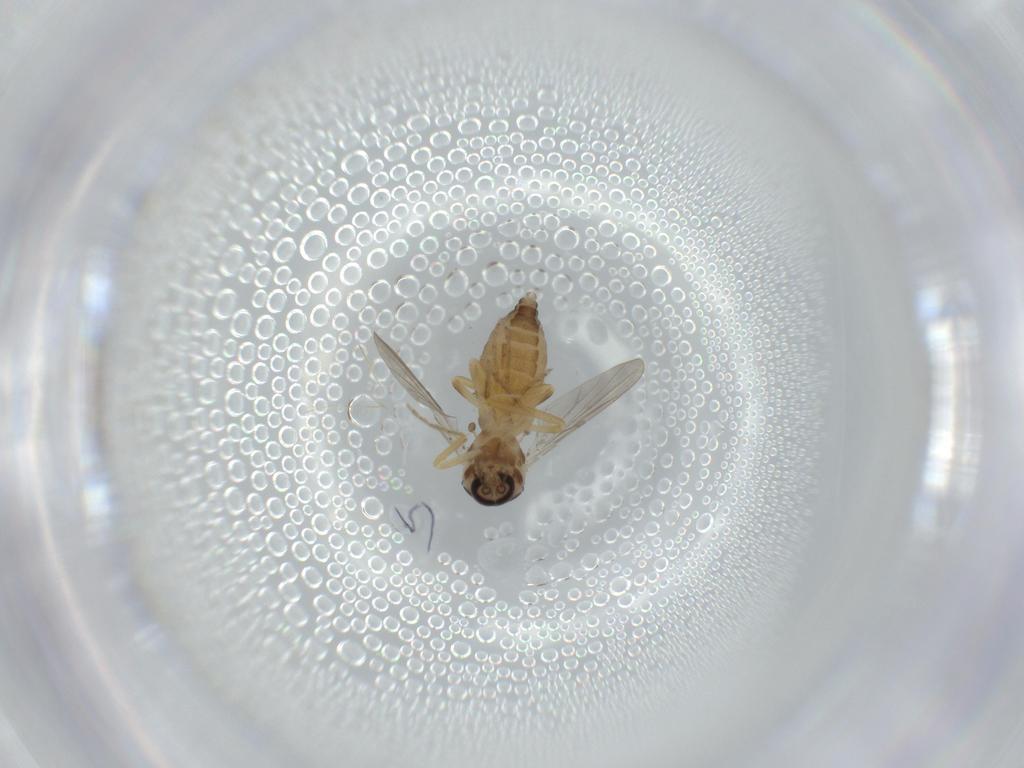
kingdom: Animalia
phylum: Arthropoda
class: Insecta
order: Diptera
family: Ceratopogonidae
